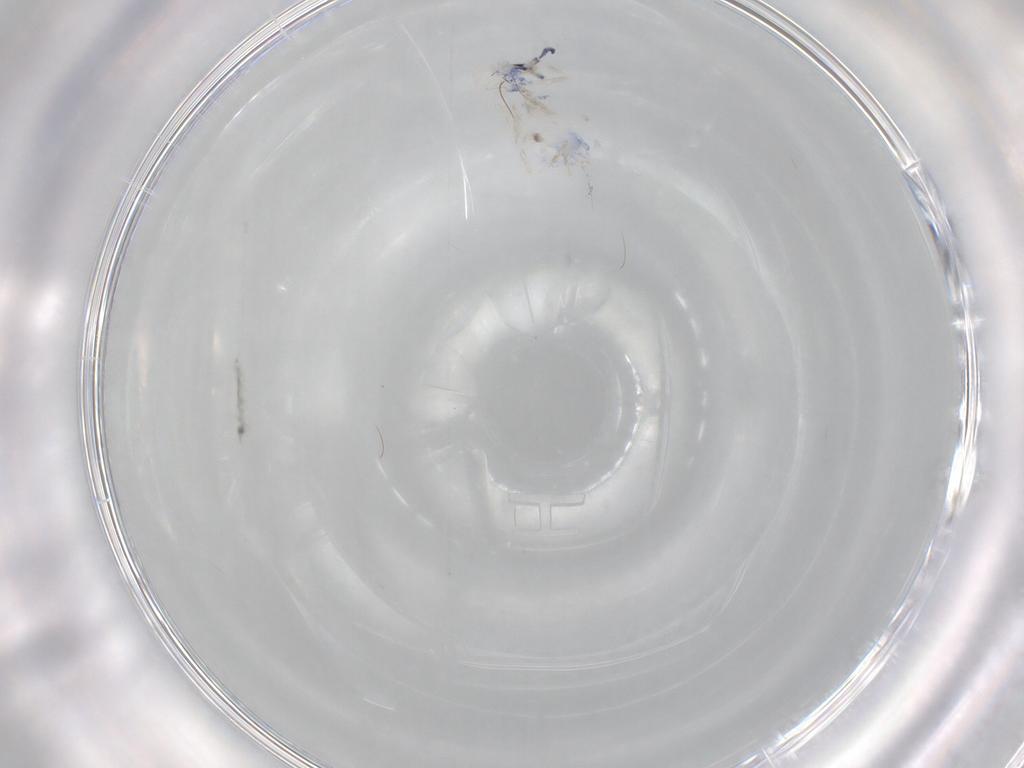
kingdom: Animalia
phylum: Arthropoda
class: Collembola
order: Entomobryomorpha
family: Entomobryidae
